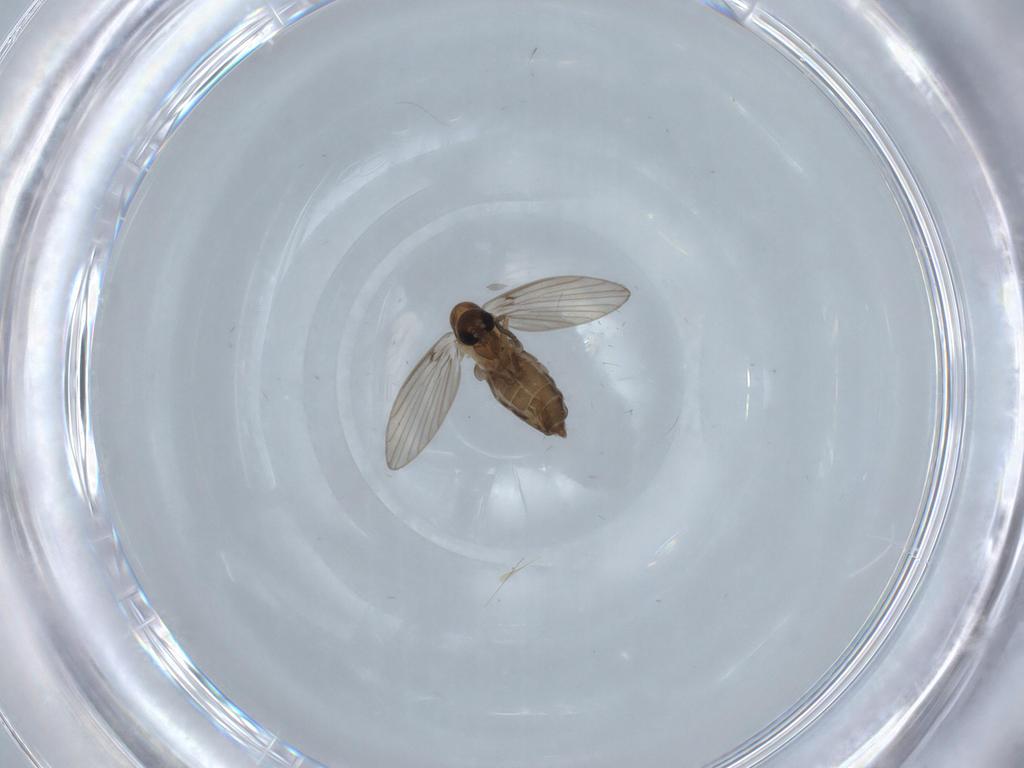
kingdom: Animalia
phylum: Arthropoda
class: Insecta
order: Diptera
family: Psychodidae
